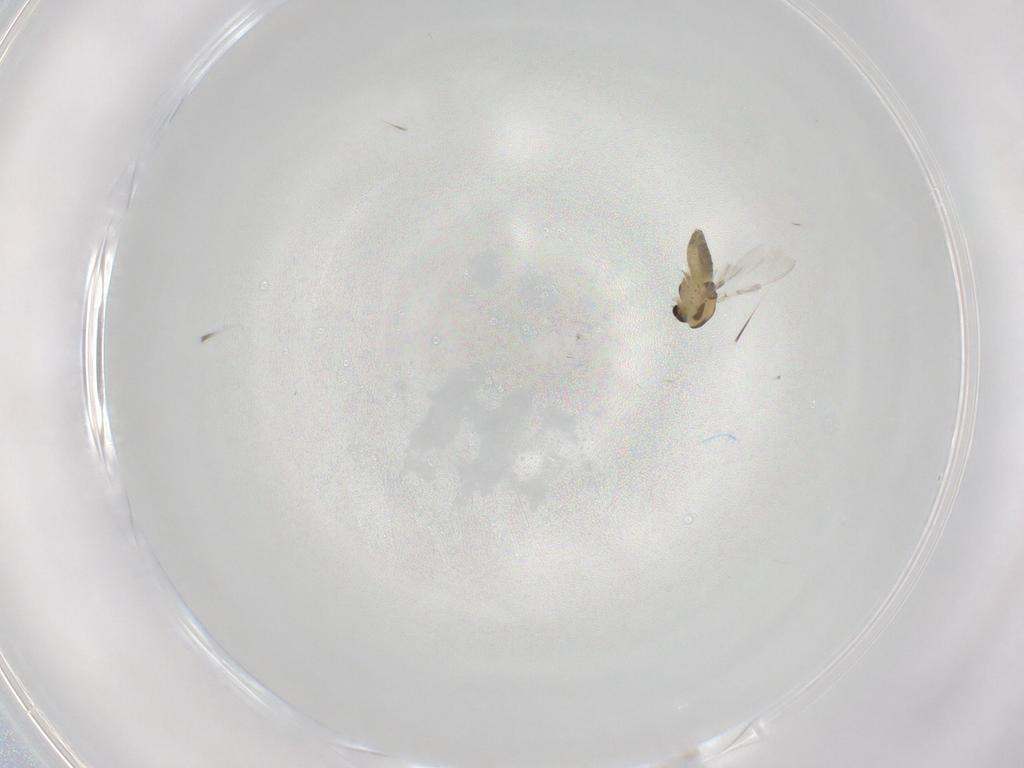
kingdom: Animalia
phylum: Arthropoda
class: Insecta
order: Diptera
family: Chironomidae
